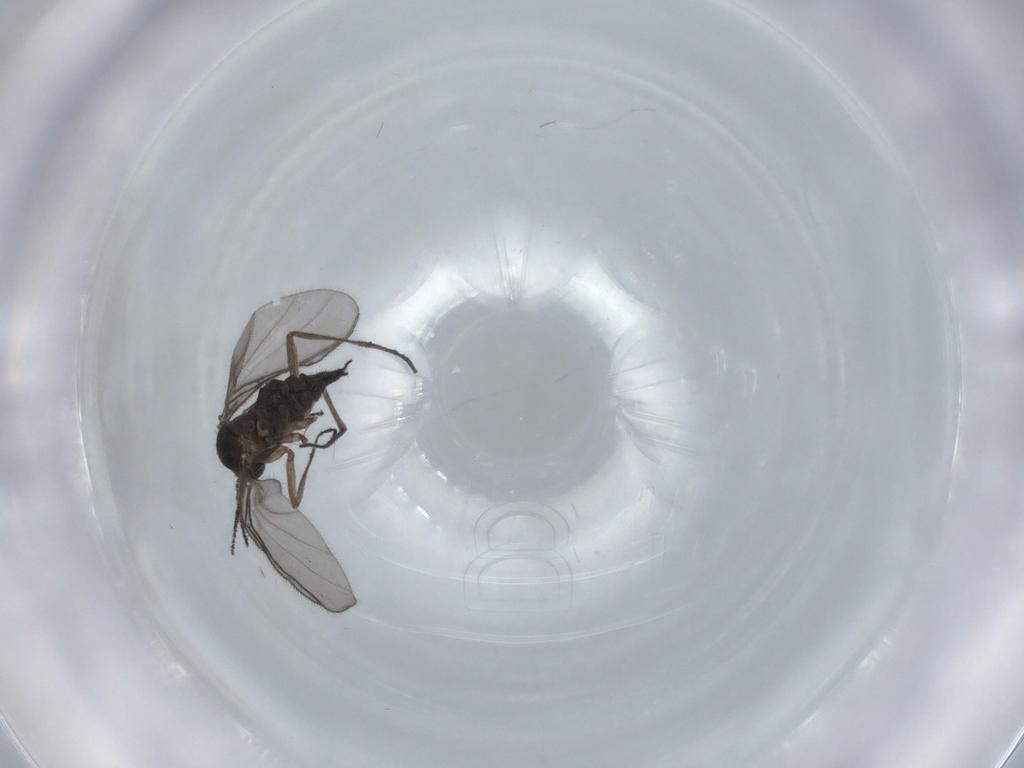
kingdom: Animalia
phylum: Arthropoda
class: Insecta
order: Diptera
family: Sciaridae
